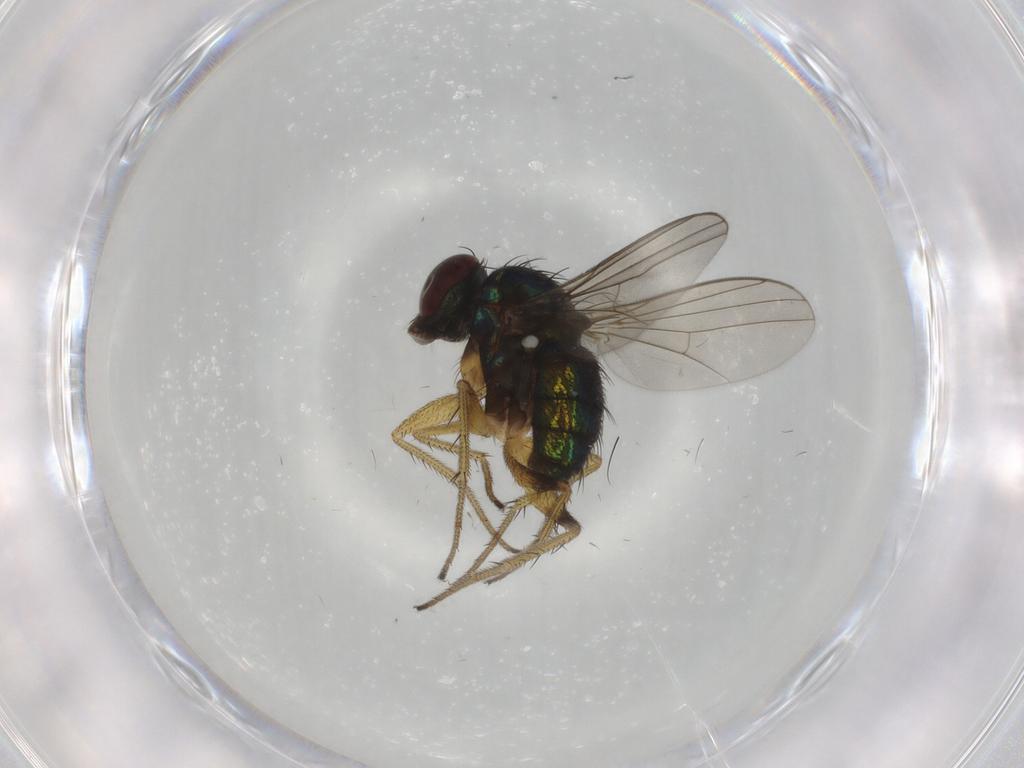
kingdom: Animalia
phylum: Arthropoda
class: Insecta
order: Diptera
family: Dolichopodidae
